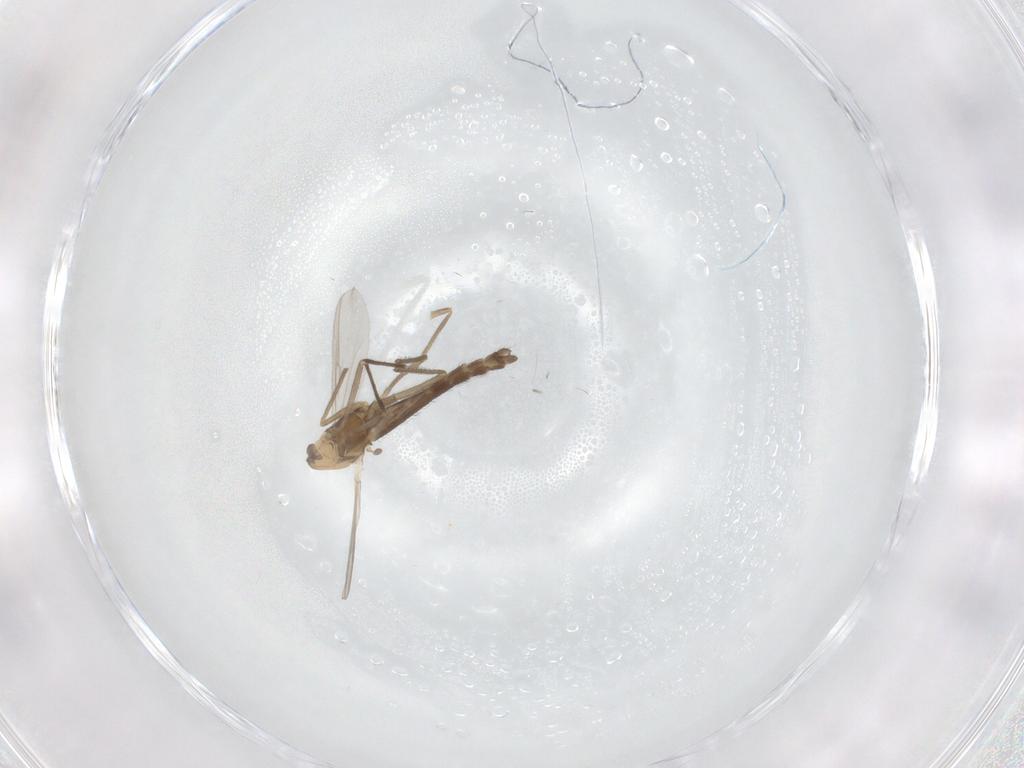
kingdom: Animalia
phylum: Arthropoda
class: Insecta
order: Diptera
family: Chironomidae
